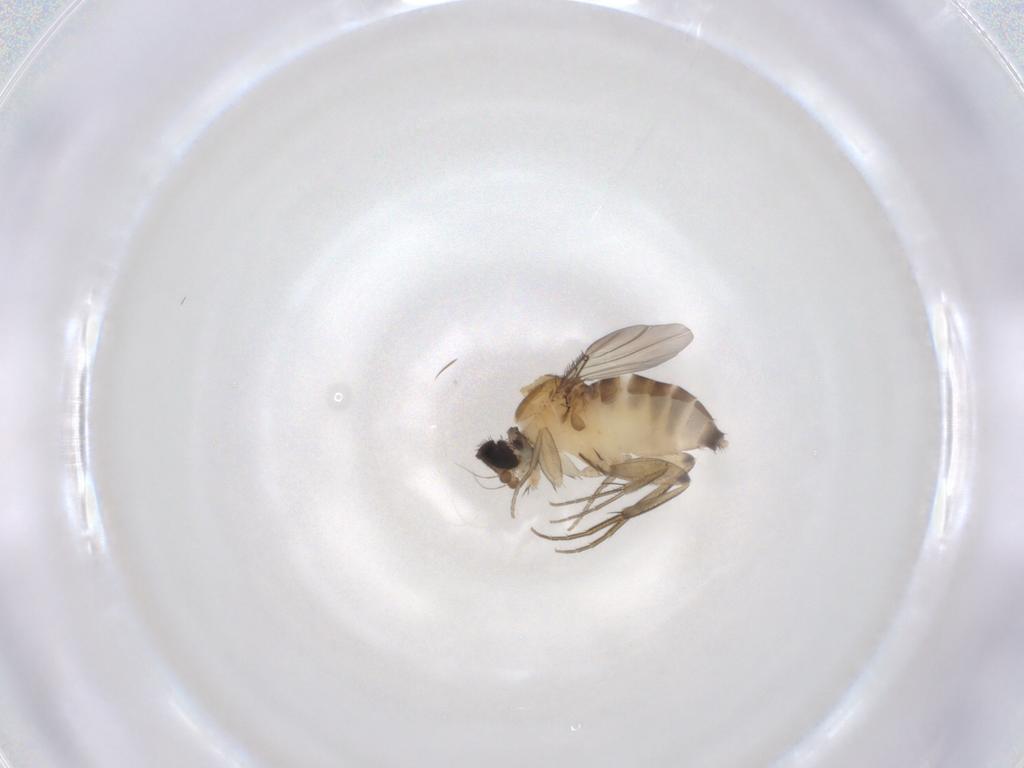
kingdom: Animalia
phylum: Arthropoda
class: Insecta
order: Diptera
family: Phoridae
